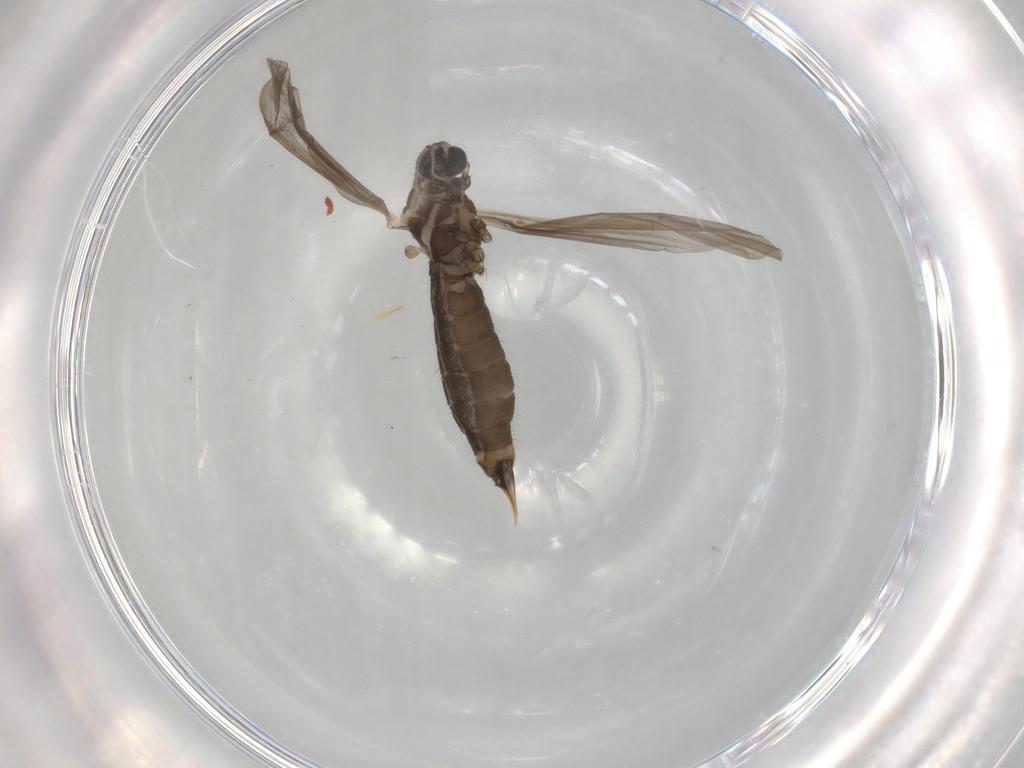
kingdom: Animalia
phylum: Arthropoda
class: Insecta
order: Diptera
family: Limoniidae
